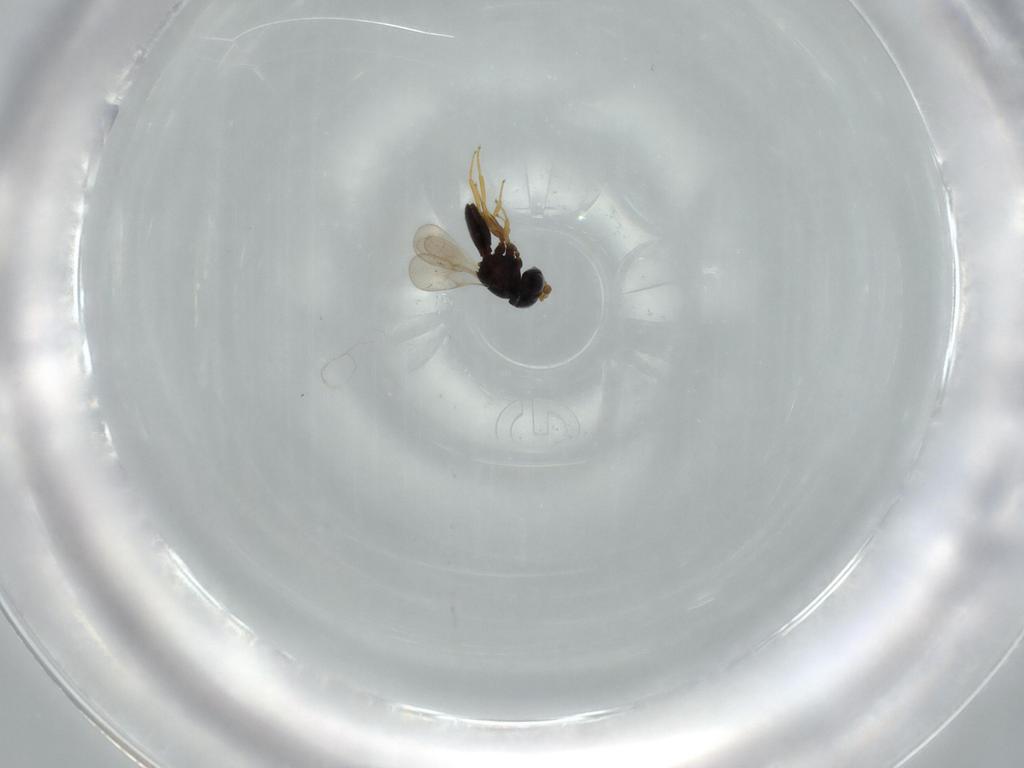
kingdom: Animalia
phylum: Arthropoda
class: Insecta
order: Hymenoptera
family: Scelionidae
